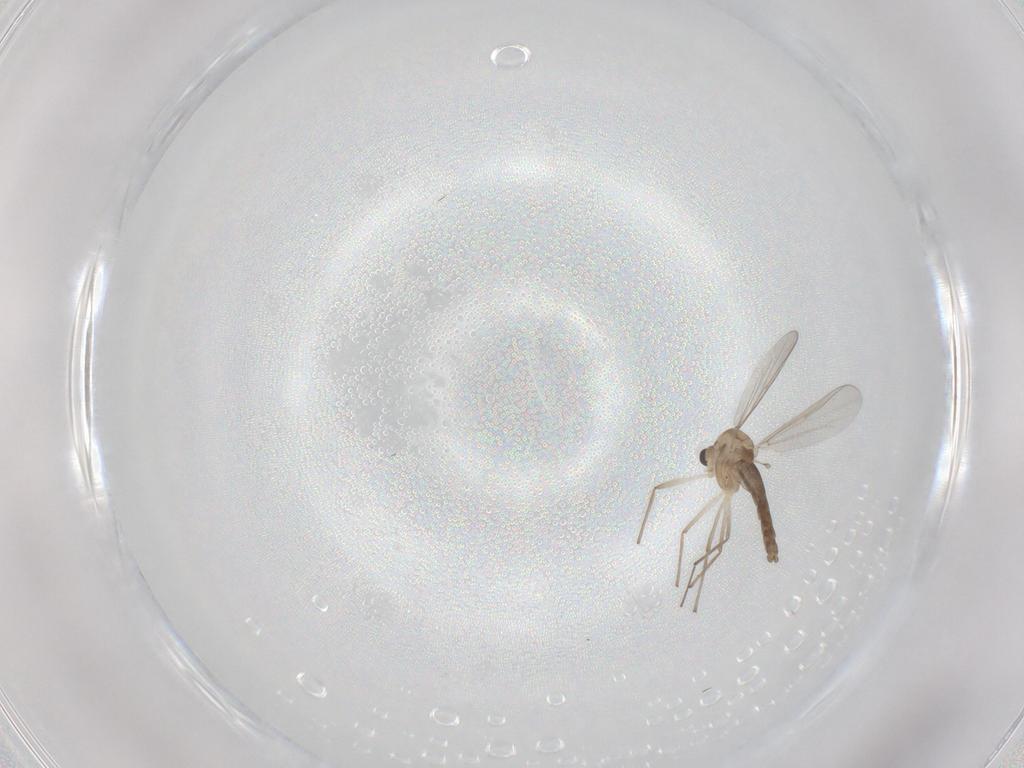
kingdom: Animalia
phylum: Arthropoda
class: Insecta
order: Diptera
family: Chironomidae
